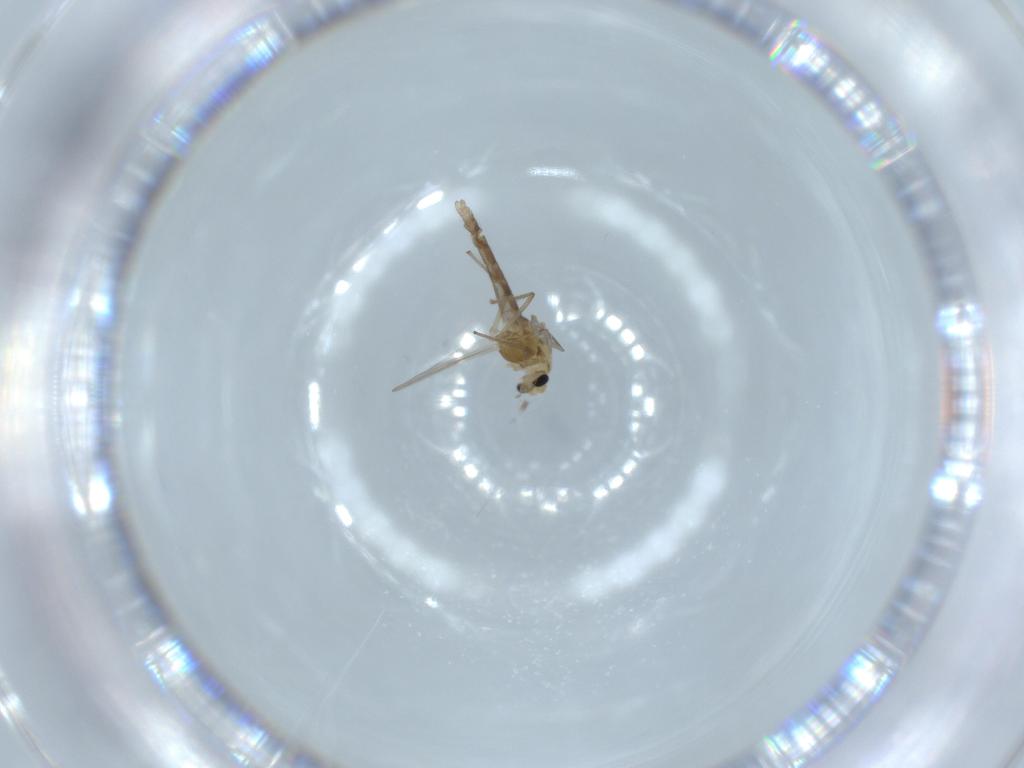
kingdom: Animalia
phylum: Arthropoda
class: Insecta
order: Diptera
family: Chironomidae
